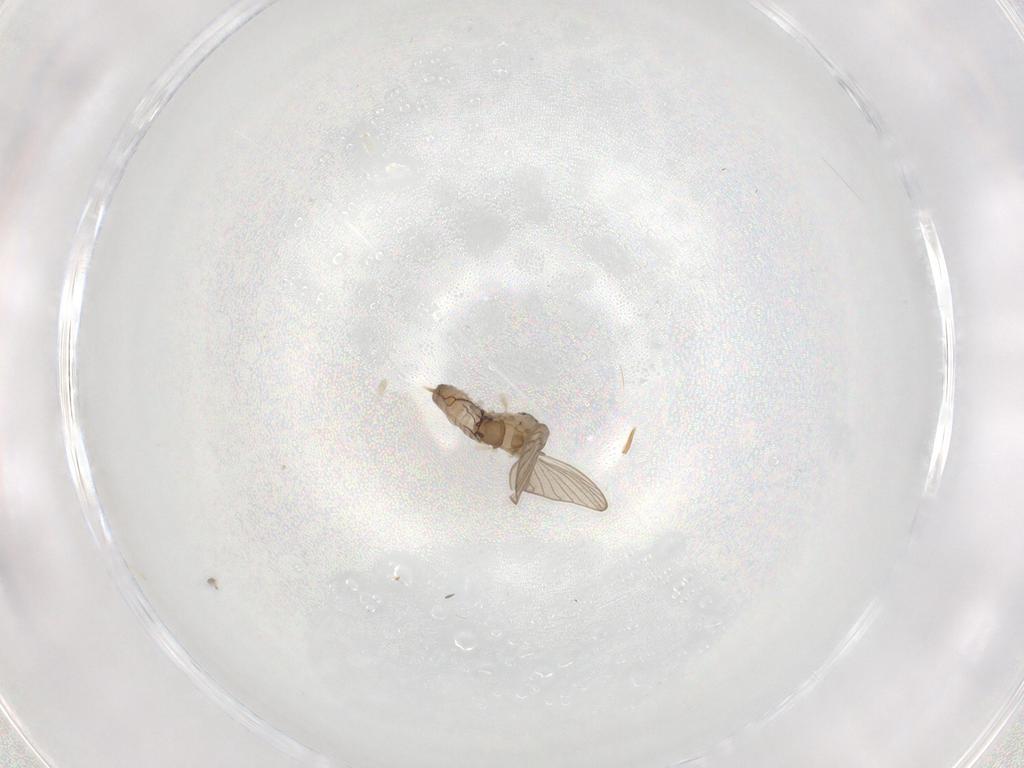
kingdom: Animalia
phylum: Arthropoda
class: Insecta
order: Diptera
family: Psychodidae
